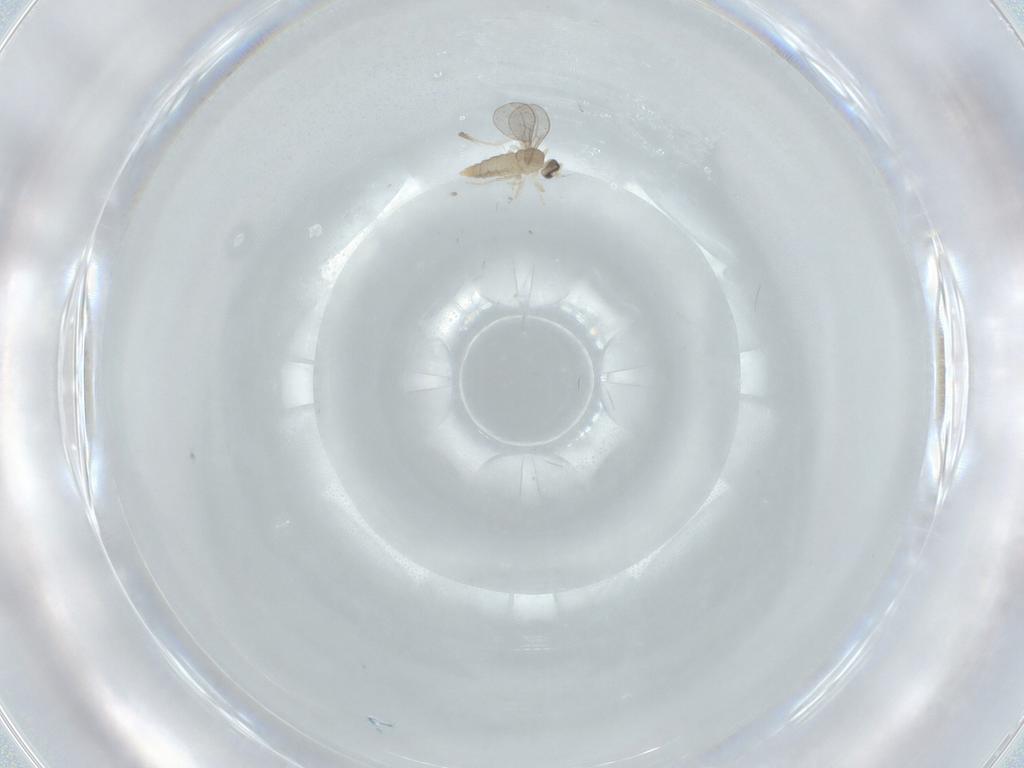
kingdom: Animalia
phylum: Arthropoda
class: Insecta
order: Diptera
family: Cecidomyiidae
